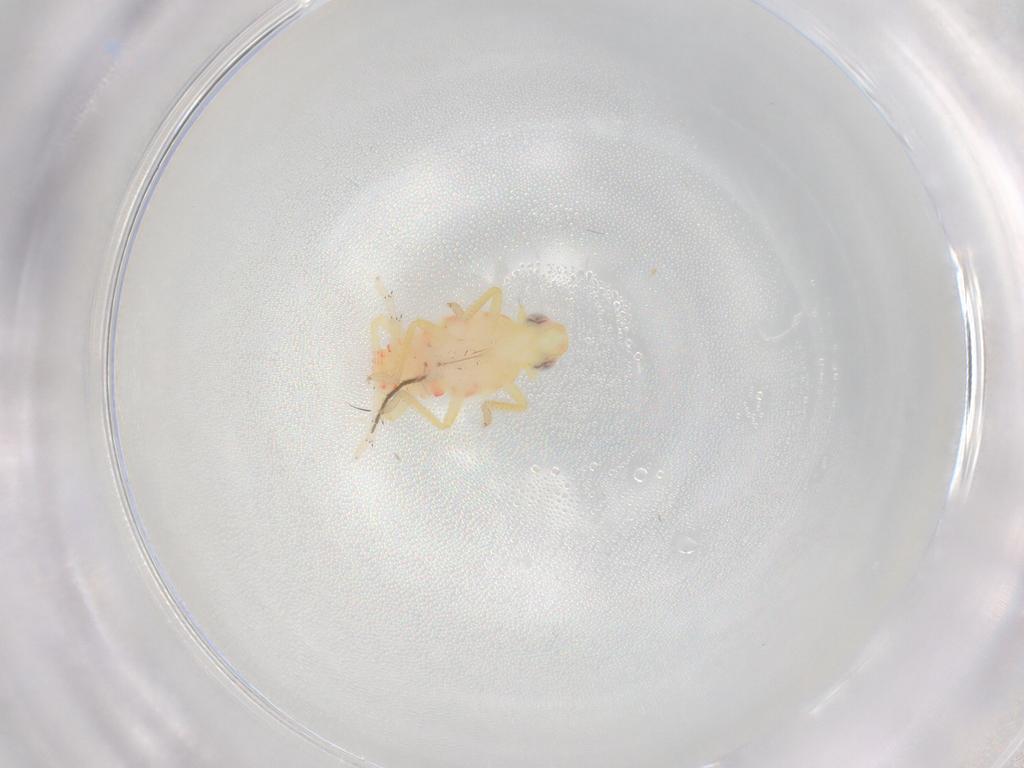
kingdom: Animalia
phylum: Arthropoda
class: Insecta
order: Hemiptera
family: Tropiduchidae
